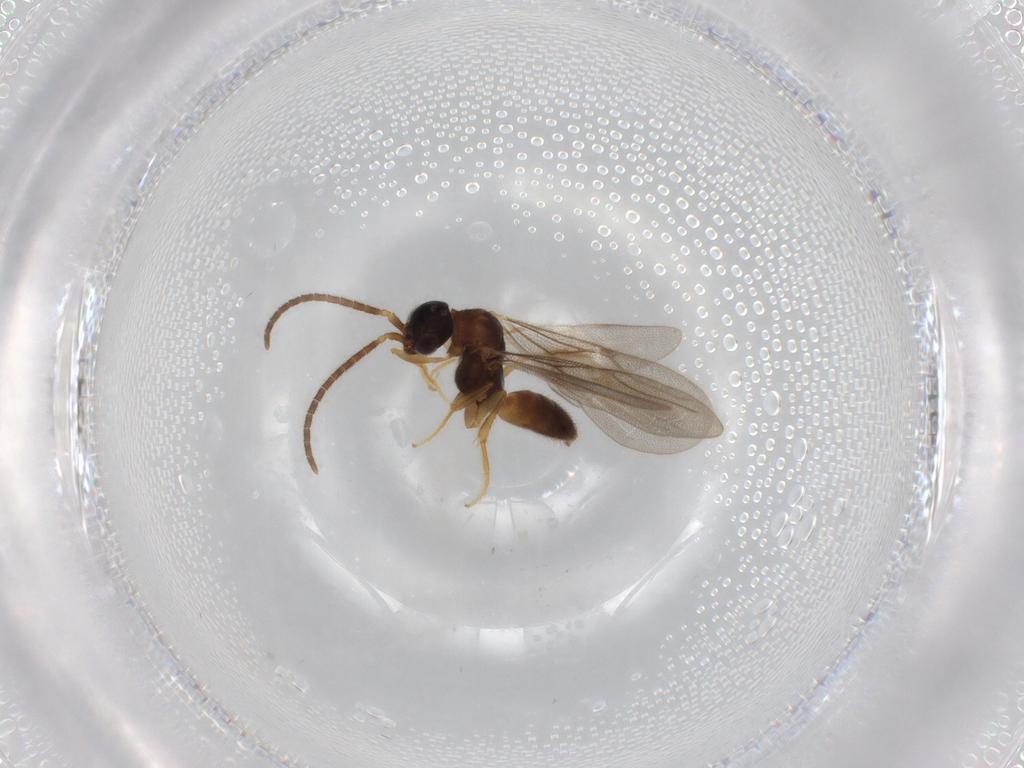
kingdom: Animalia
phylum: Arthropoda
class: Insecta
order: Hymenoptera
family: Bethylidae
